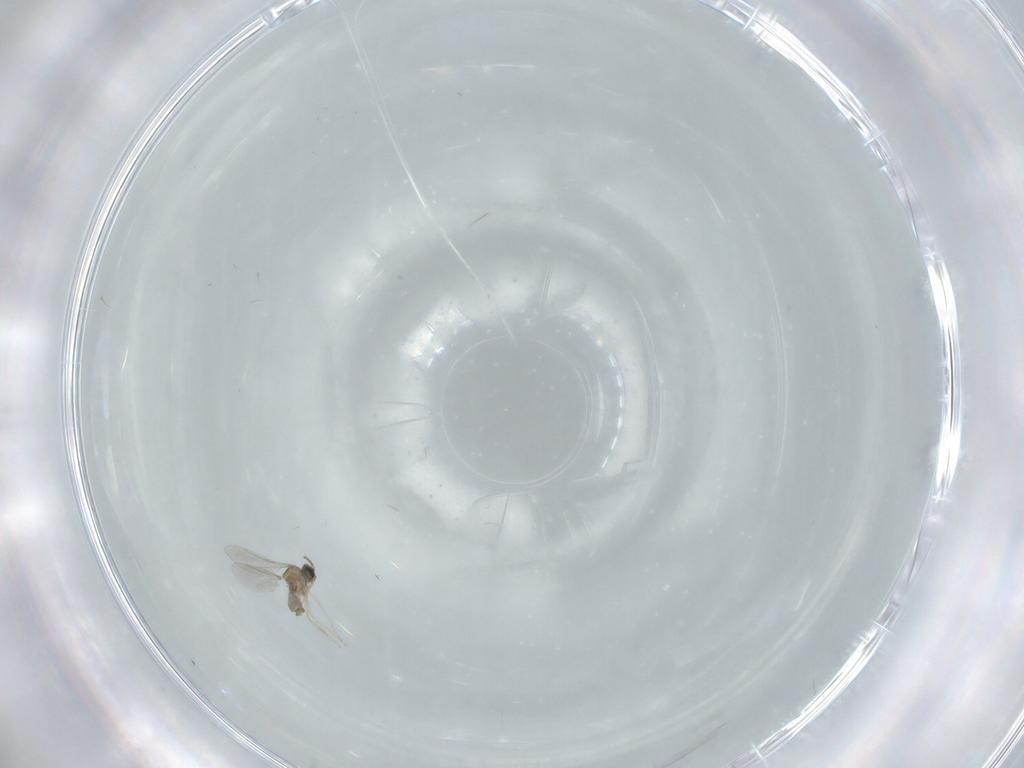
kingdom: Animalia
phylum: Arthropoda
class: Insecta
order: Diptera
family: Cecidomyiidae
